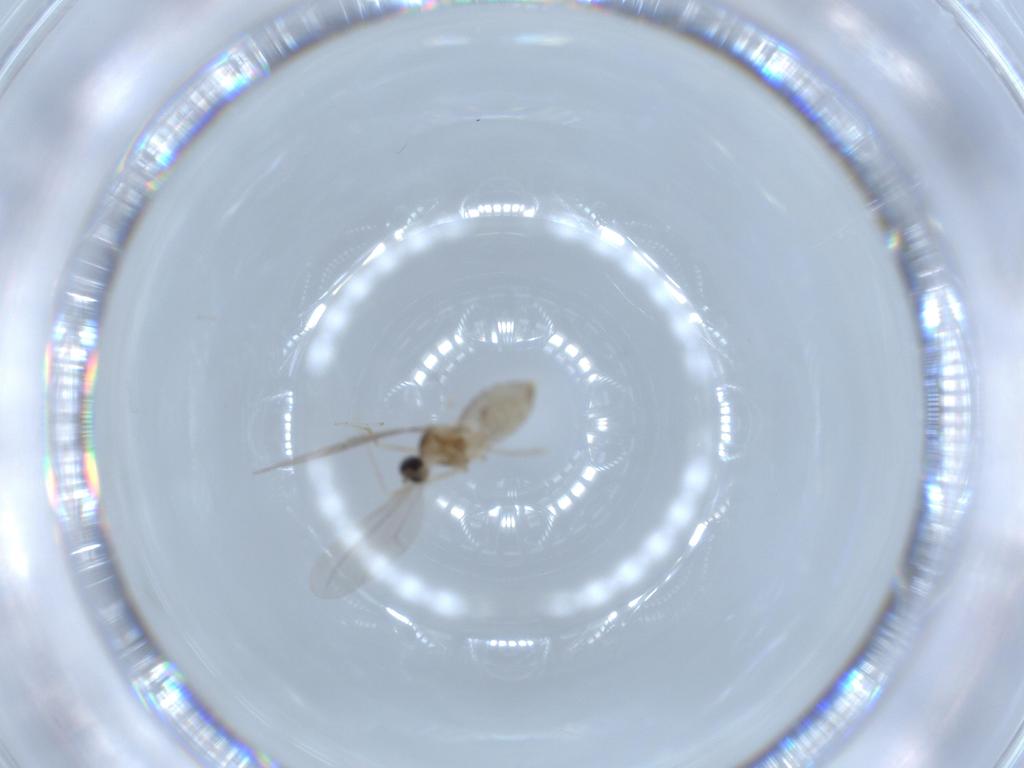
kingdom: Animalia
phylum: Arthropoda
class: Insecta
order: Diptera
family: Cecidomyiidae
